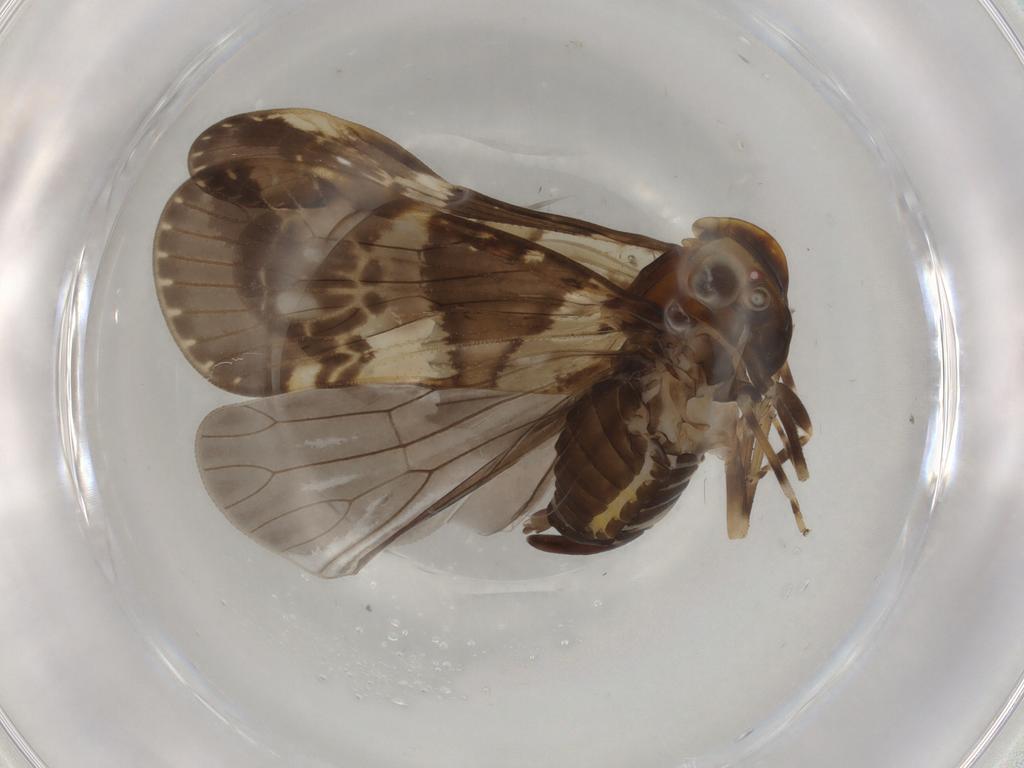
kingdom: Animalia
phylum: Arthropoda
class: Insecta
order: Hemiptera
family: Cixiidae
